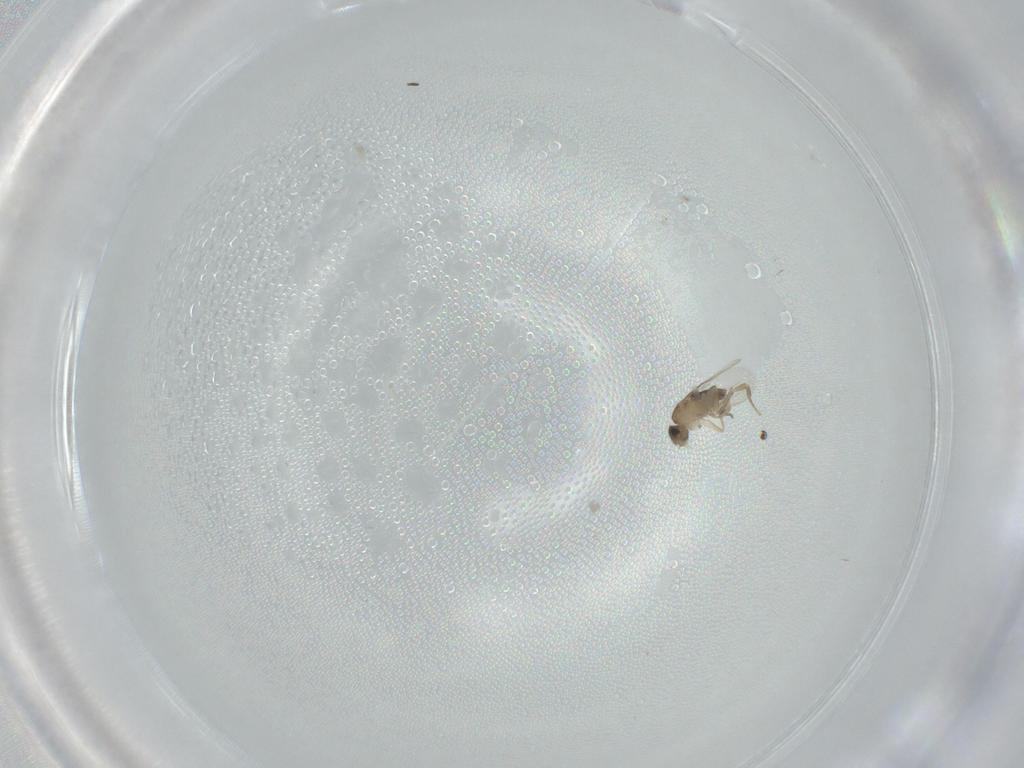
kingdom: Animalia
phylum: Arthropoda
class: Insecta
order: Diptera
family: Phoridae
